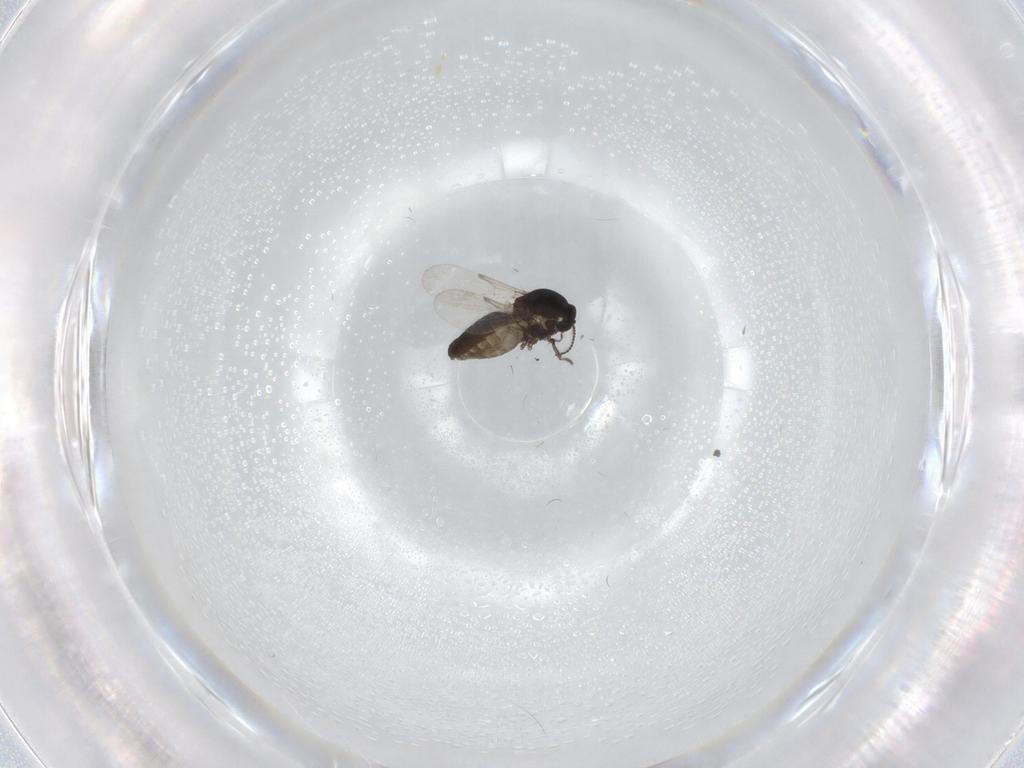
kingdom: Animalia
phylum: Arthropoda
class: Insecta
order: Diptera
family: Ceratopogonidae
